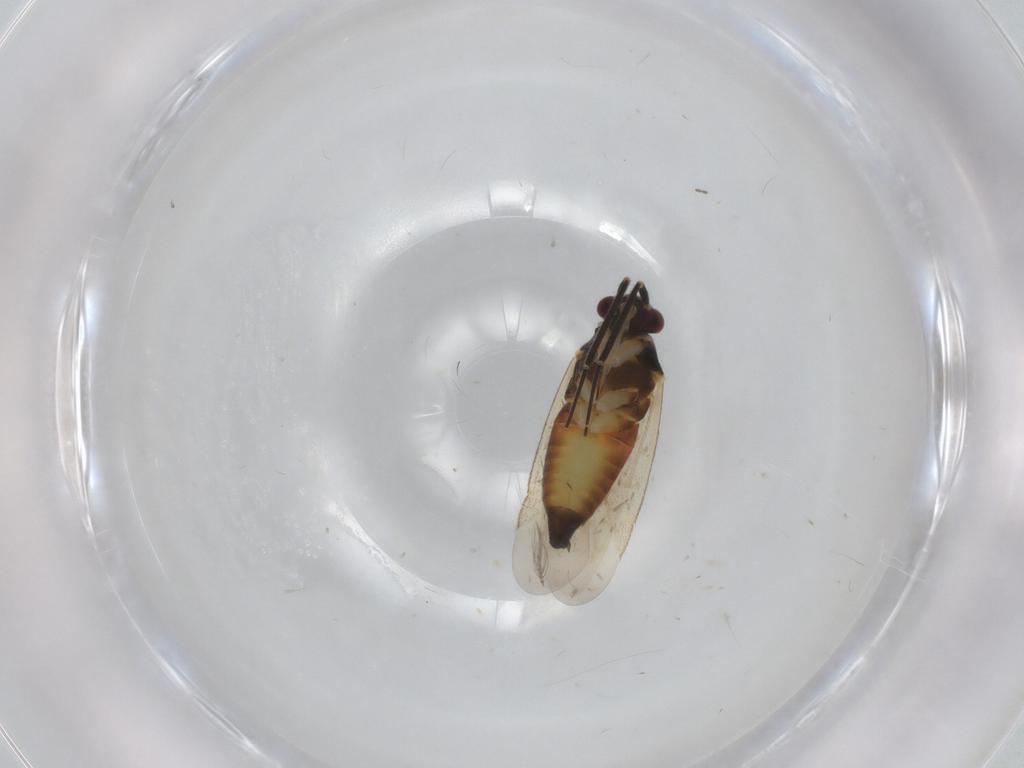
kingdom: Animalia
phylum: Arthropoda
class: Insecta
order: Hemiptera
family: Miridae
